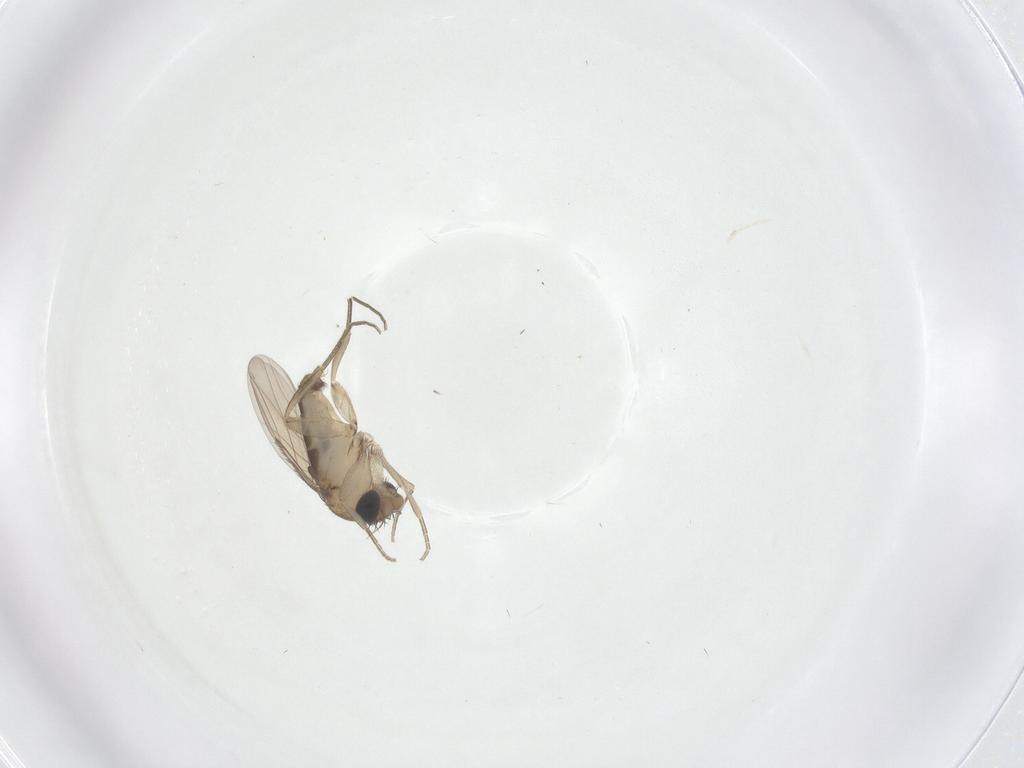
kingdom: Animalia
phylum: Arthropoda
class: Insecta
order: Diptera
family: Phoridae
